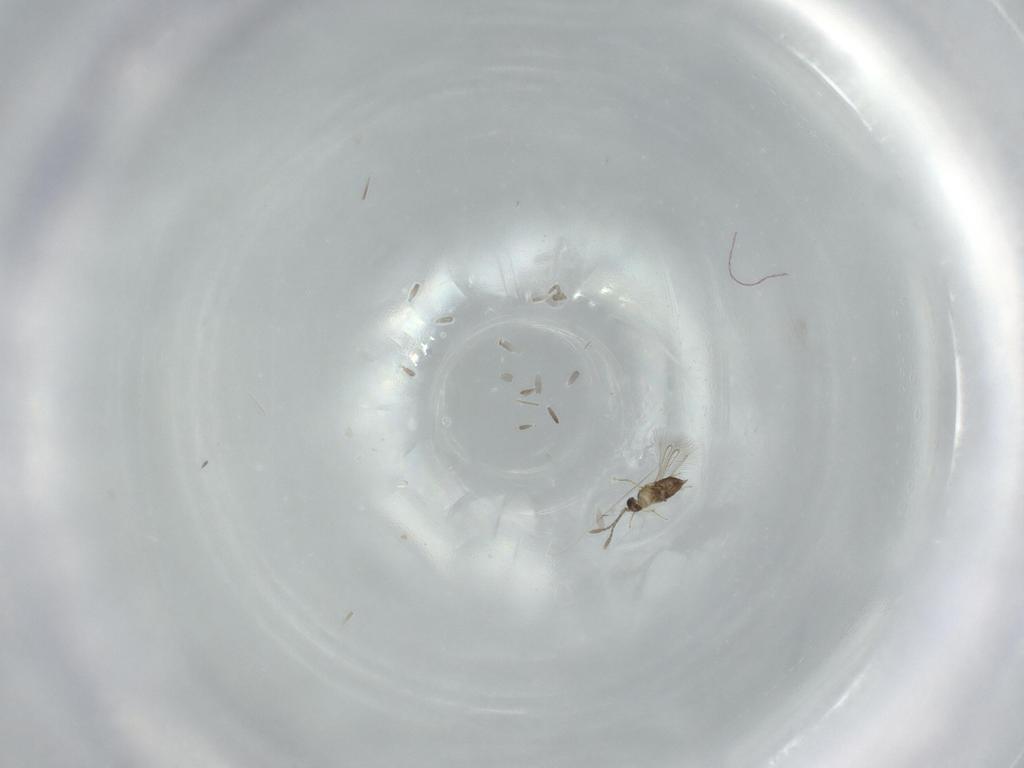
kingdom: Animalia
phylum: Arthropoda
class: Insecta
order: Hymenoptera
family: Mymaridae
